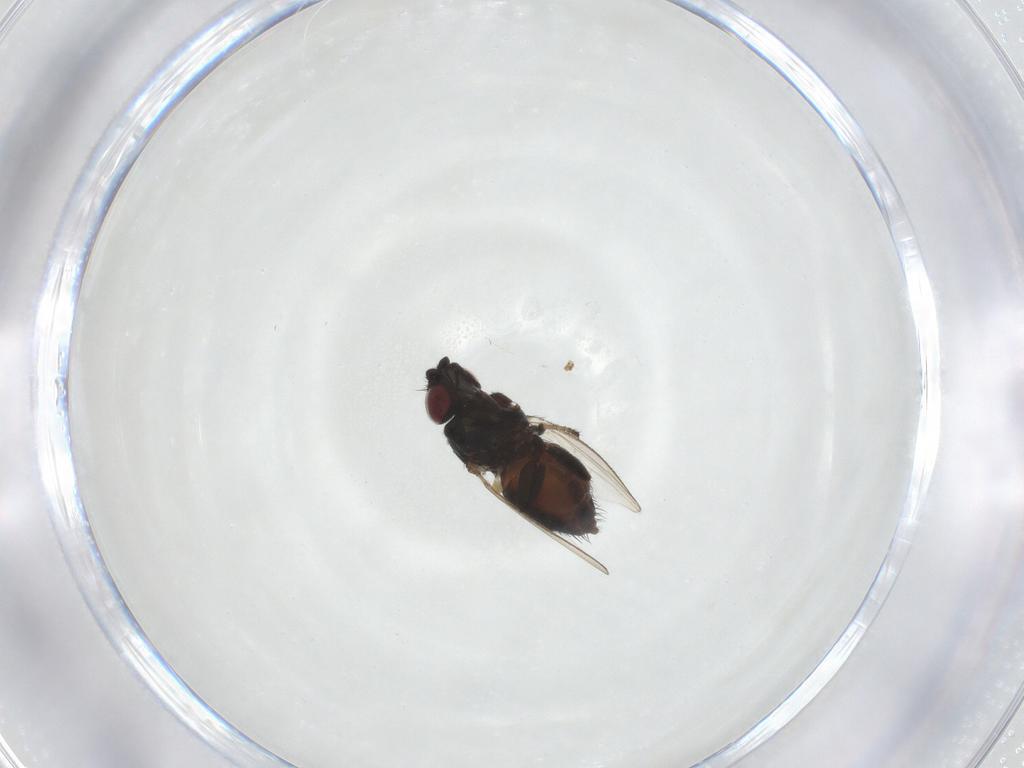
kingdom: Animalia
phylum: Arthropoda
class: Insecta
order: Diptera
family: Milichiidae
